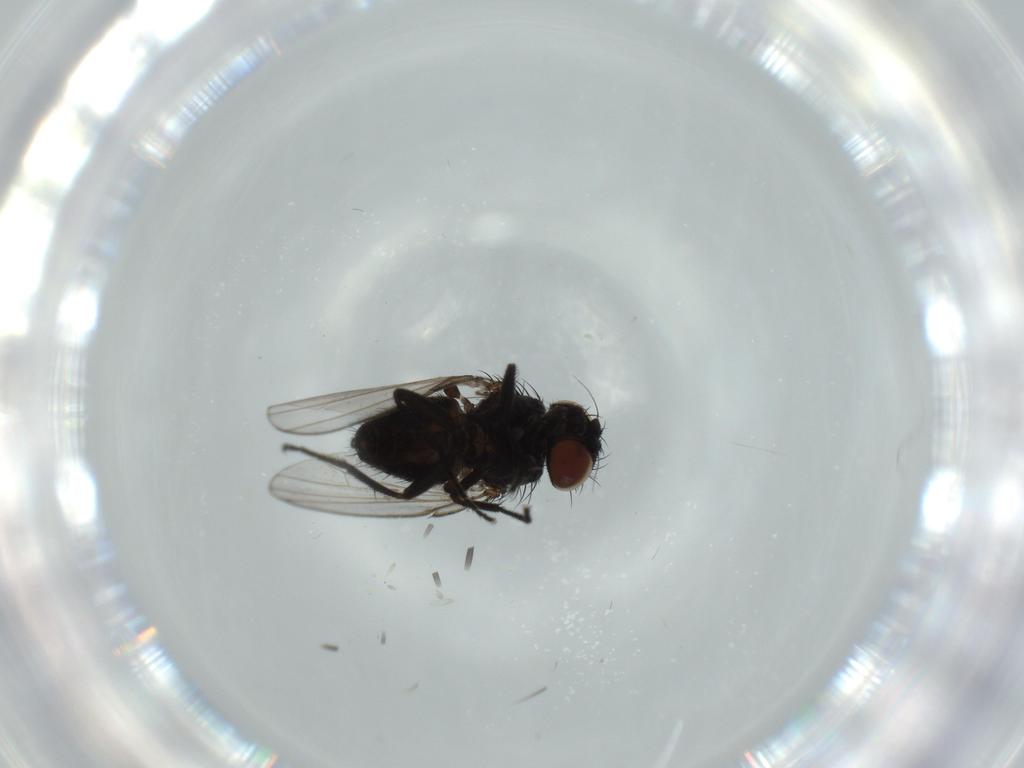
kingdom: Animalia
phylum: Arthropoda
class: Insecta
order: Diptera
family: Milichiidae
